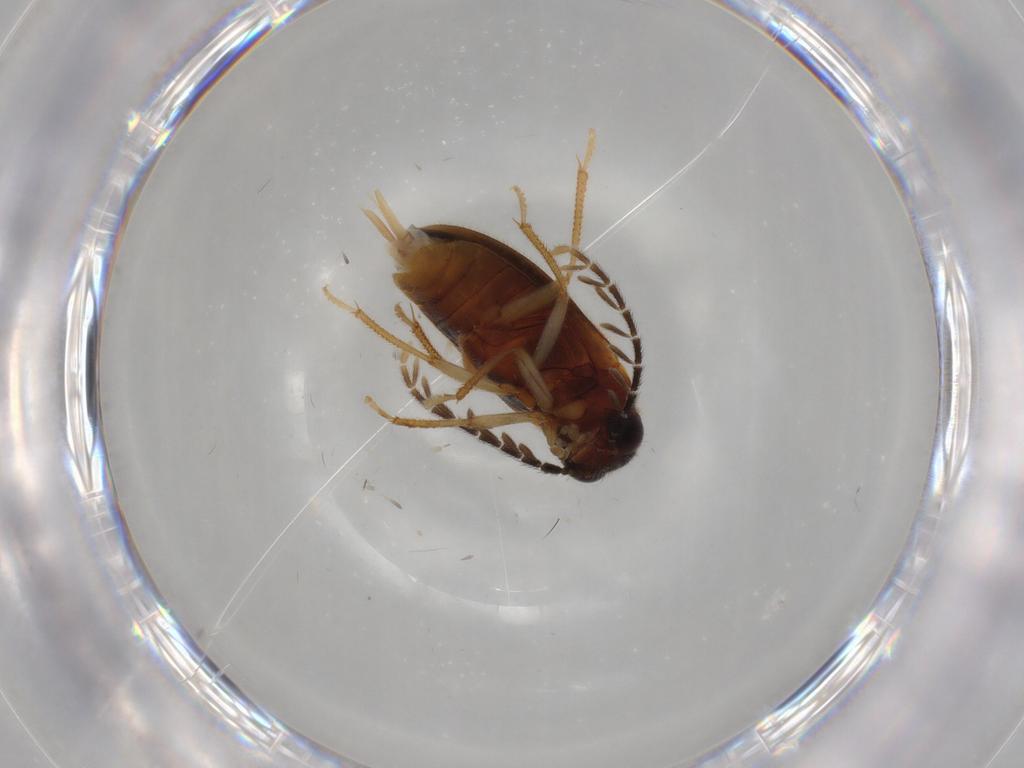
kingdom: Animalia
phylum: Arthropoda
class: Insecta
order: Coleoptera
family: Ptilodactylidae
